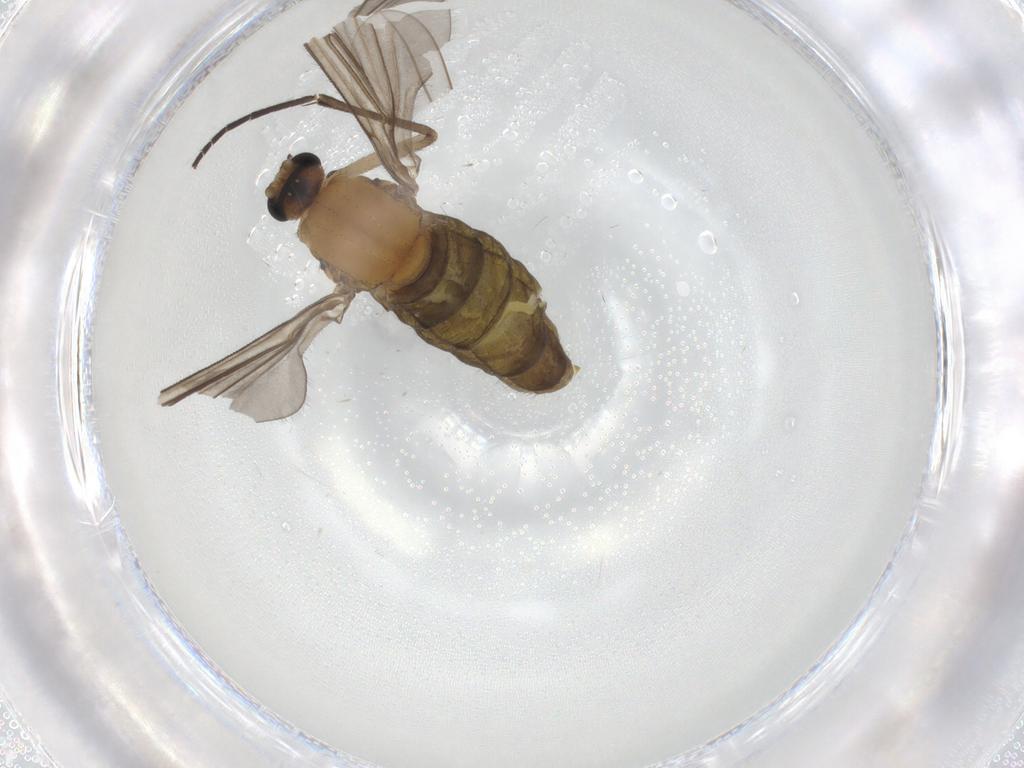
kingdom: Animalia
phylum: Arthropoda
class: Insecta
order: Diptera
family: Sciaridae
